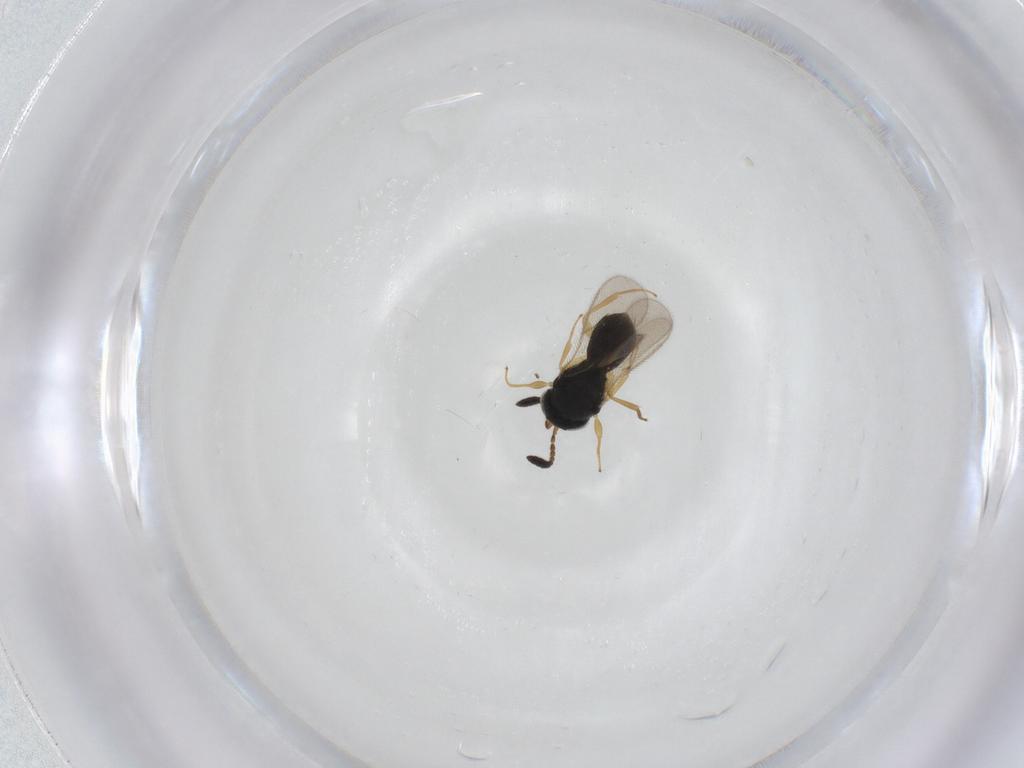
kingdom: Animalia
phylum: Arthropoda
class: Insecta
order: Hymenoptera
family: Scelionidae
